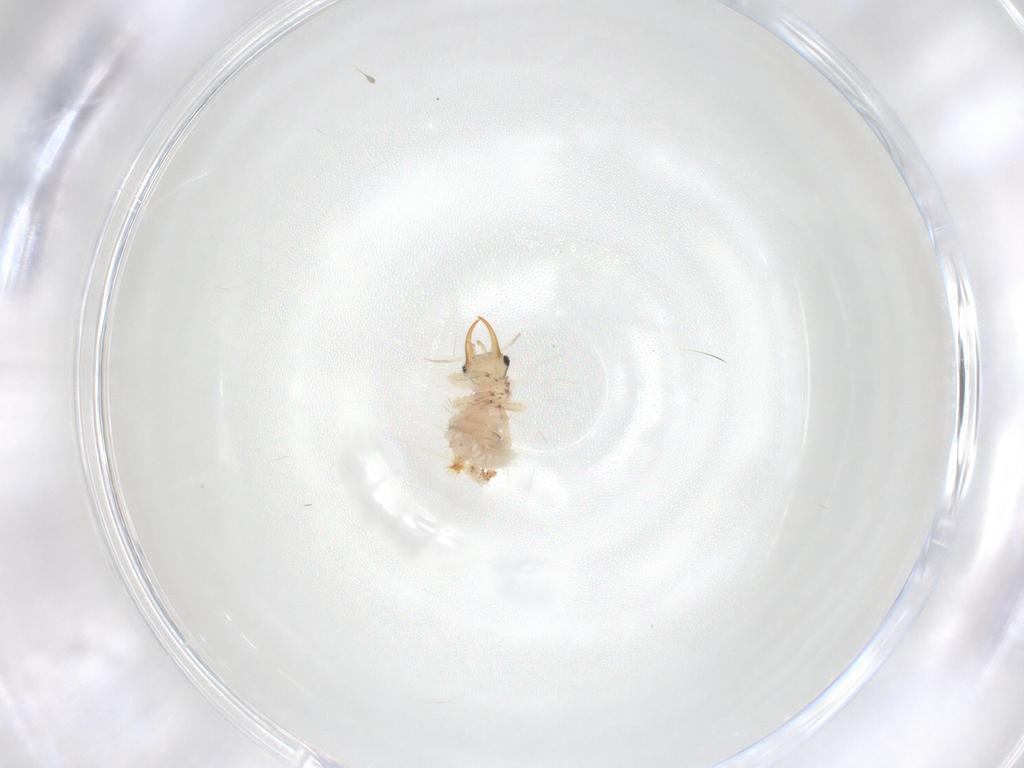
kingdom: Animalia
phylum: Arthropoda
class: Insecta
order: Neuroptera
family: Chrysopidae
